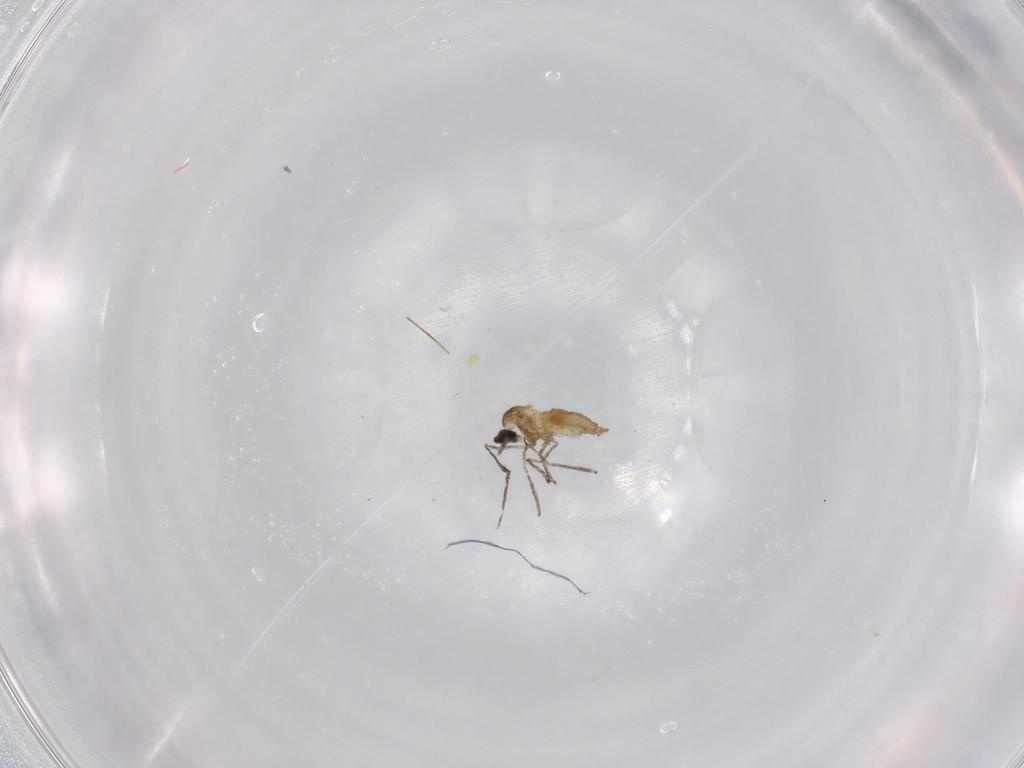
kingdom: Animalia
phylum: Arthropoda
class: Insecta
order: Diptera
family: Cecidomyiidae
